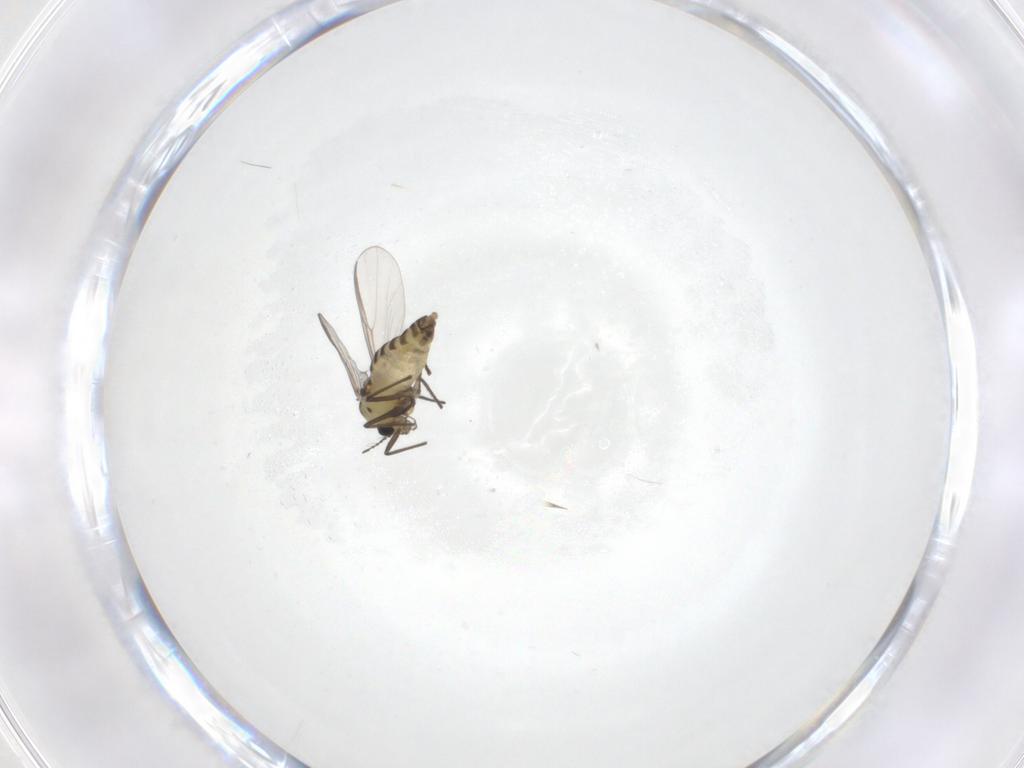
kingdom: Animalia
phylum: Arthropoda
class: Insecta
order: Diptera
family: Chironomidae
